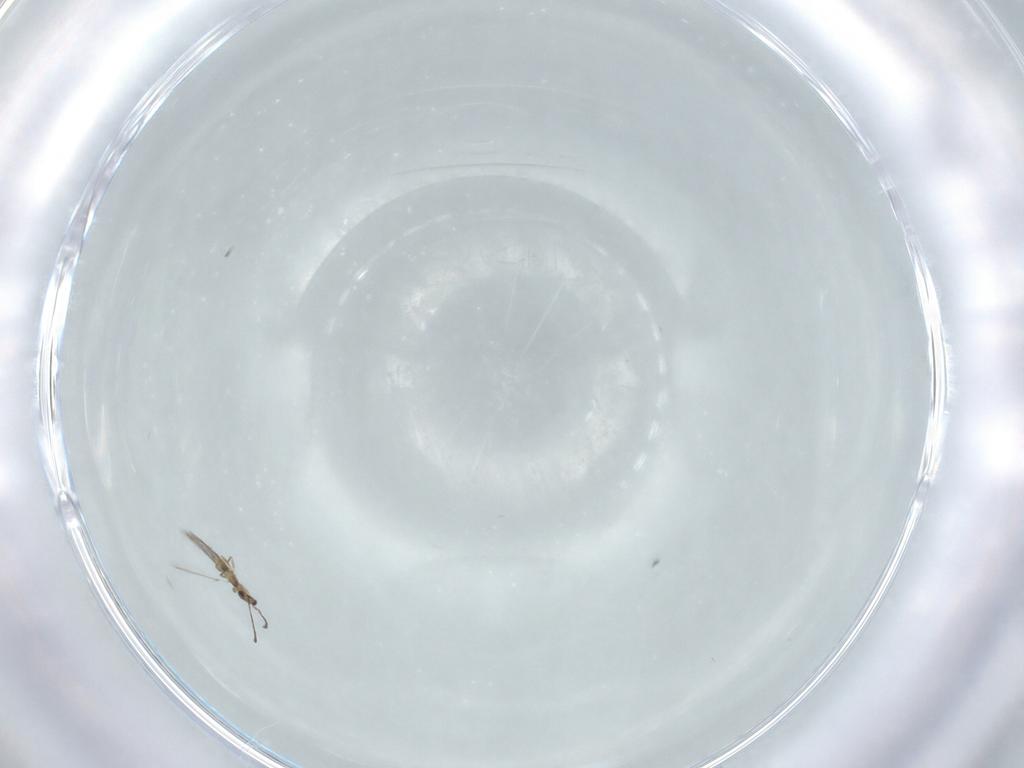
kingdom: Animalia
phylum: Arthropoda
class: Insecta
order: Hymenoptera
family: Mymaridae
